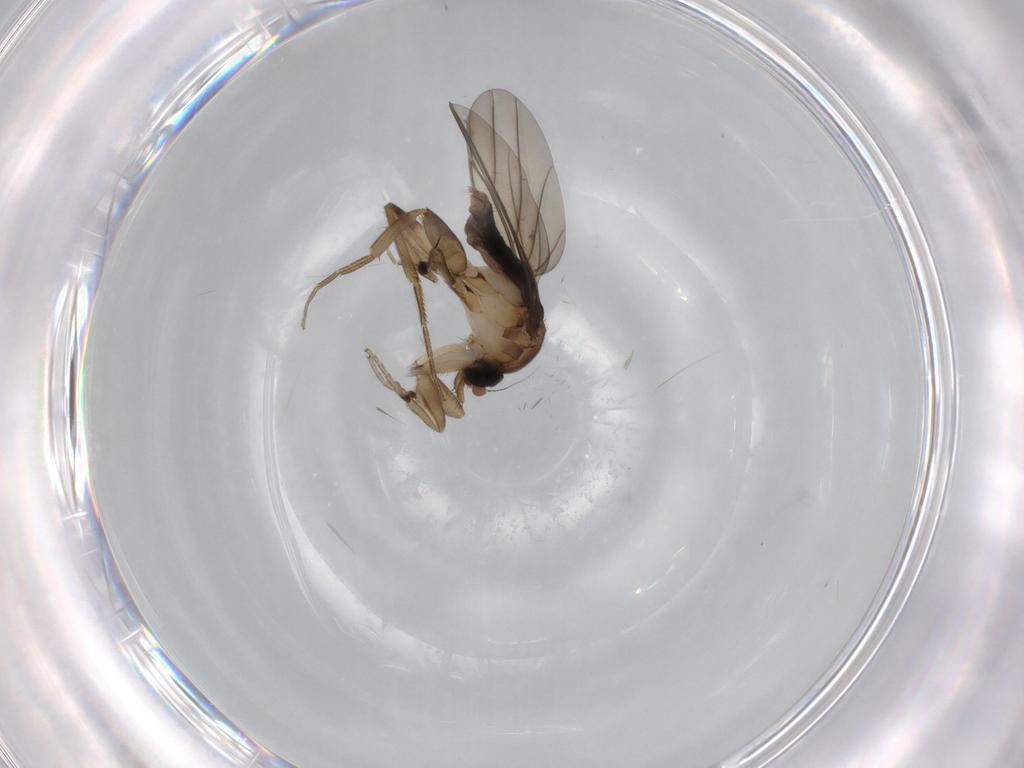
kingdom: Animalia
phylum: Arthropoda
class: Insecta
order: Diptera
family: Phoridae
